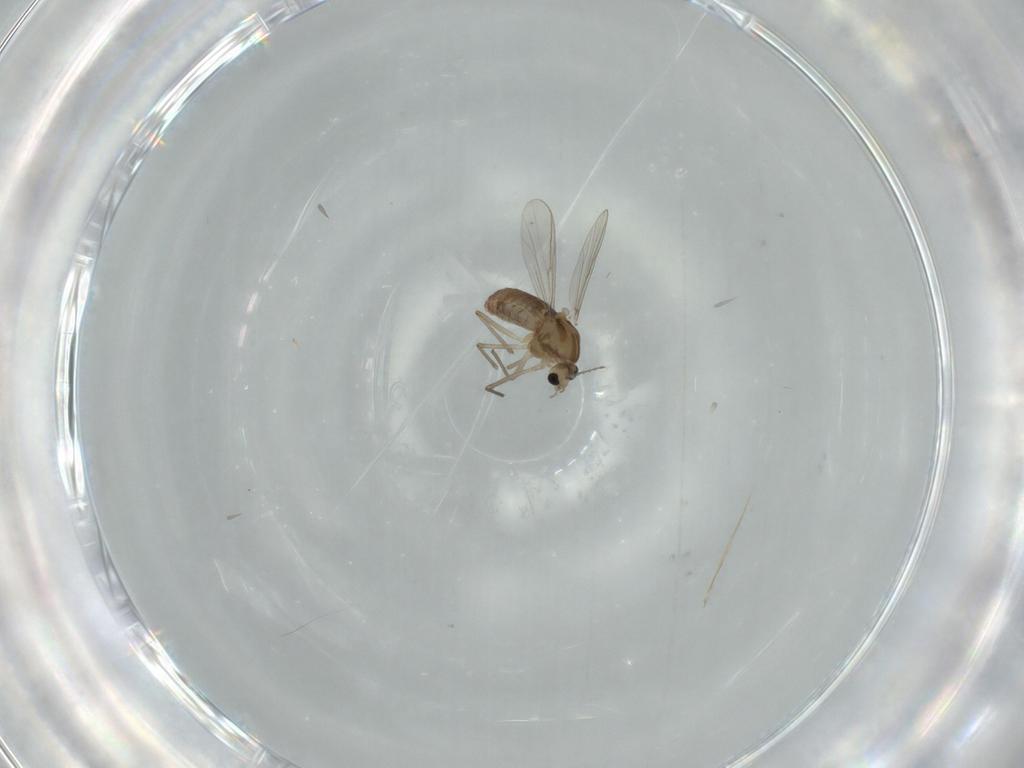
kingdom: Animalia
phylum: Arthropoda
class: Insecta
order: Diptera
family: Chironomidae
